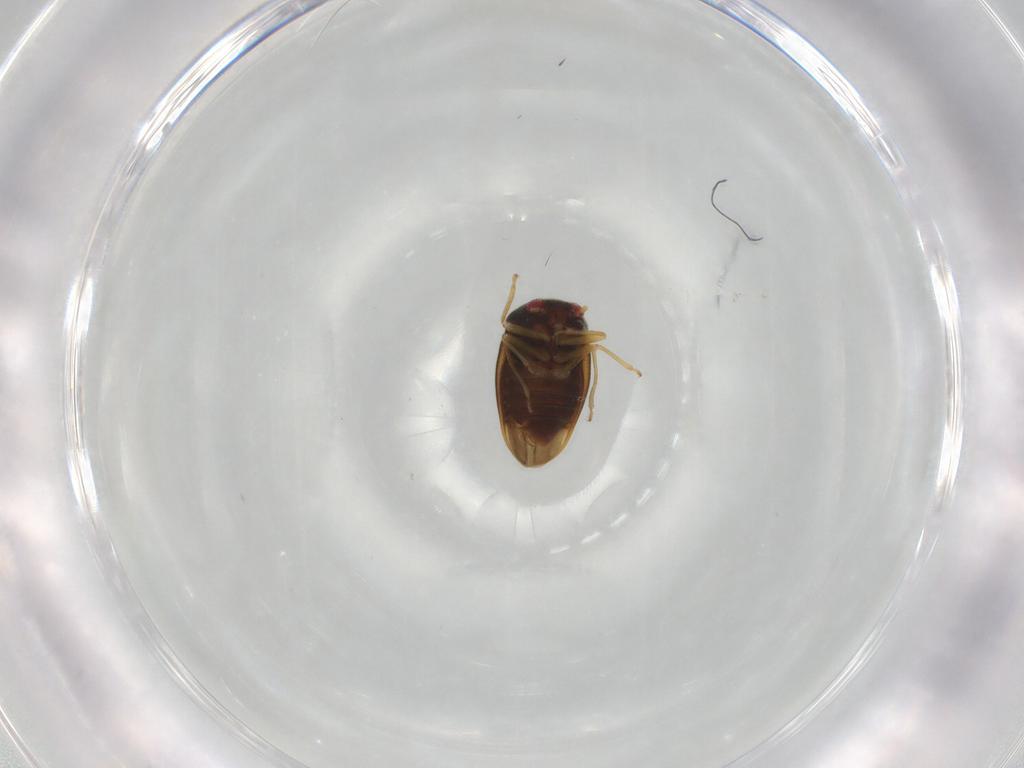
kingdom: Animalia
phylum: Arthropoda
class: Insecta
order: Hemiptera
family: Schizopteridae
